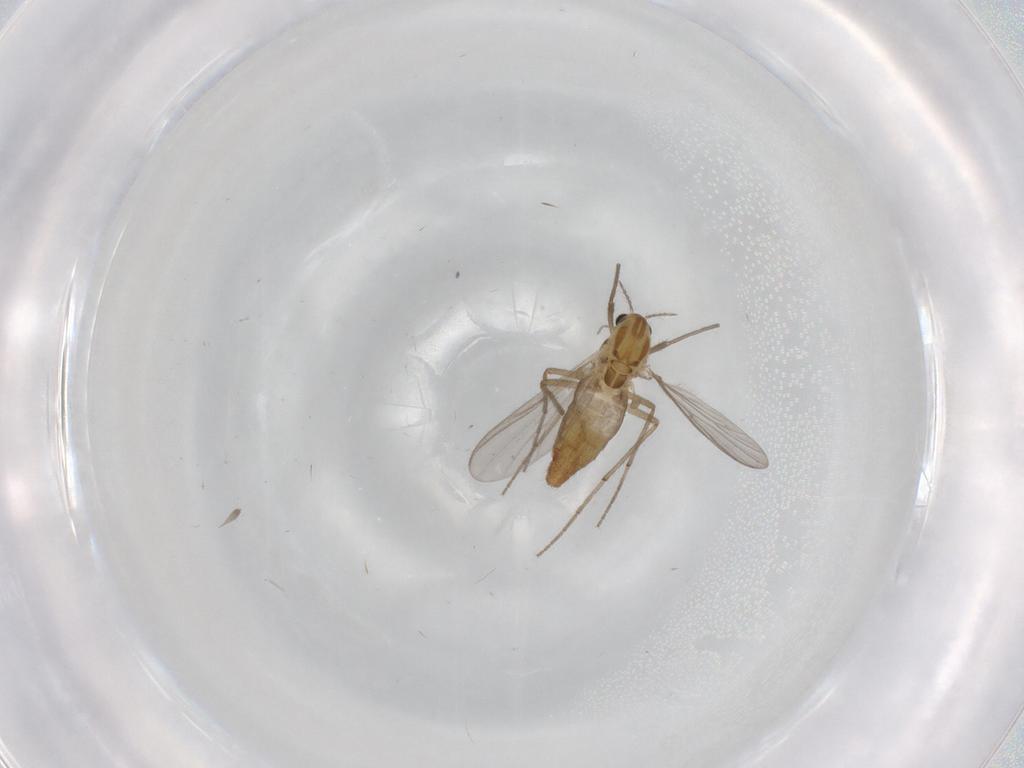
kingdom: Animalia
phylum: Arthropoda
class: Insecta
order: Diptera
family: Chironomidae
